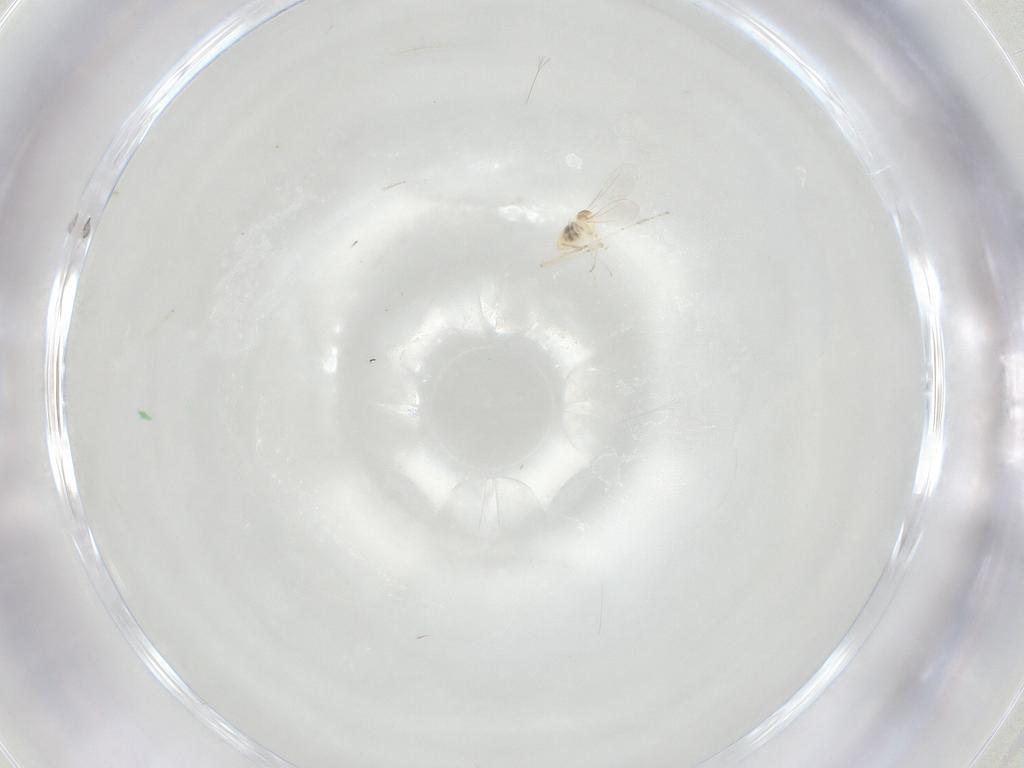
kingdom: Animalia
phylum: Arthropoda
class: Insecta
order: Diptera
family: Cecidomyiidae
